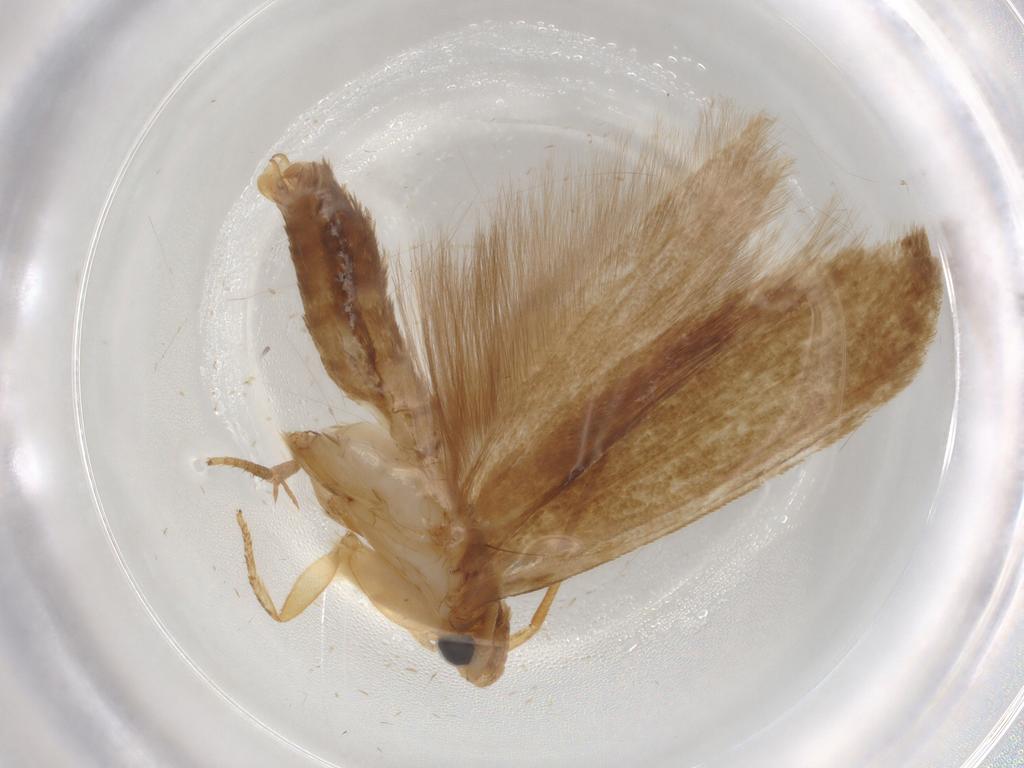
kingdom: Animalia
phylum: Arthropoda
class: Insecta
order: Lepidoptera
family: Tineidae
